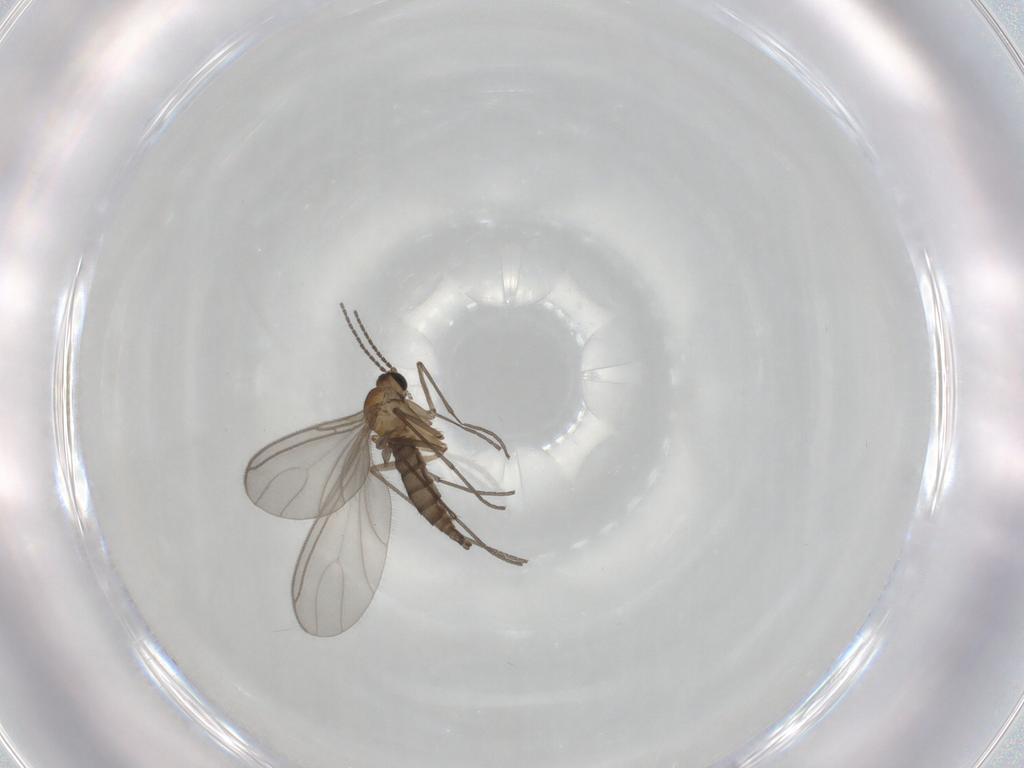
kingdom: Animalia
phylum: Arthropoda
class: Insecta
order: Diptera
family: Sciaridae
